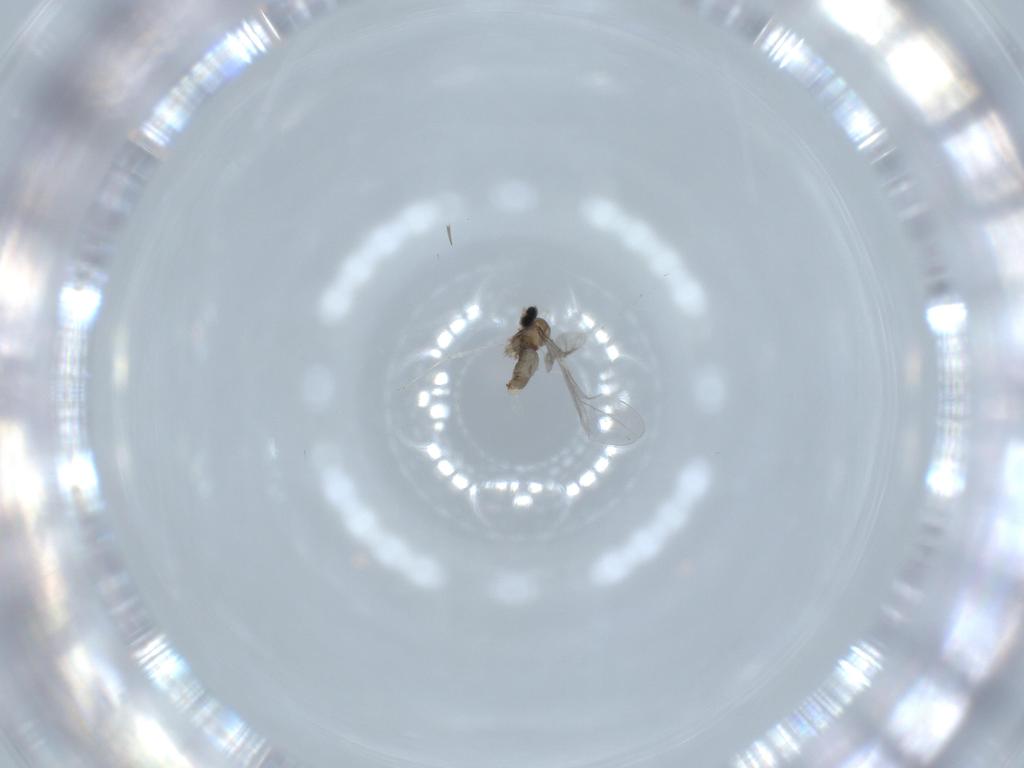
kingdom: Animalia
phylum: Arthropoda
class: Insecta
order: Diptera
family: Cecidomyiidae
